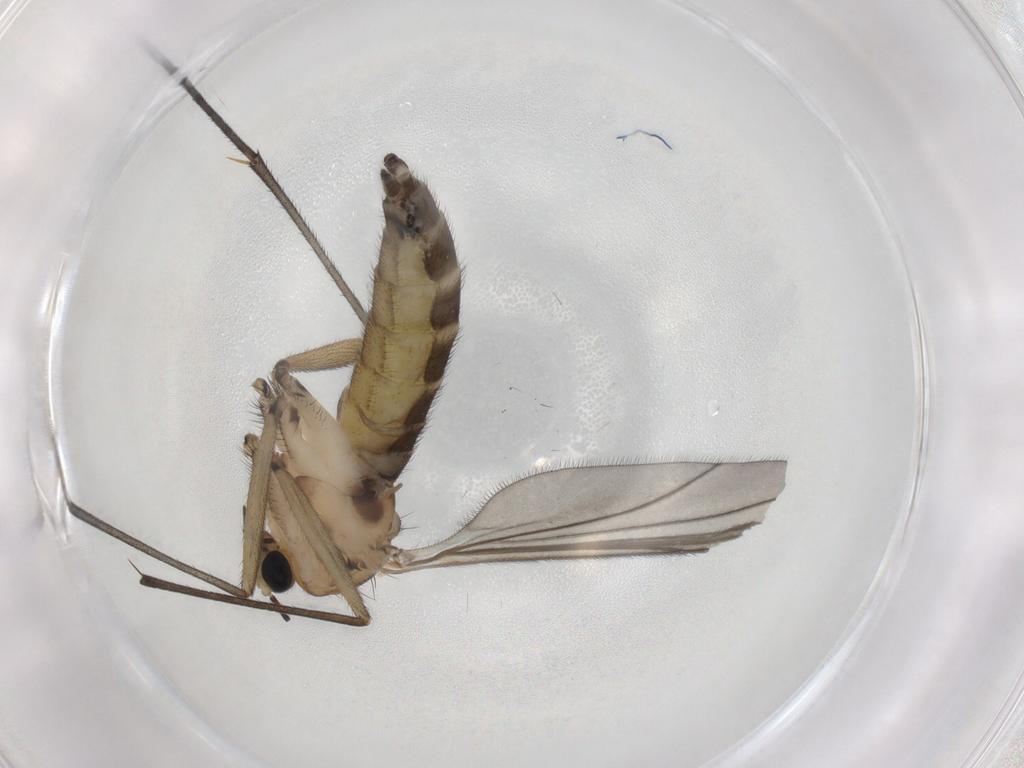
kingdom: Animalia
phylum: Arthropoda
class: Insecta
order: Diptera
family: Sciaridae
